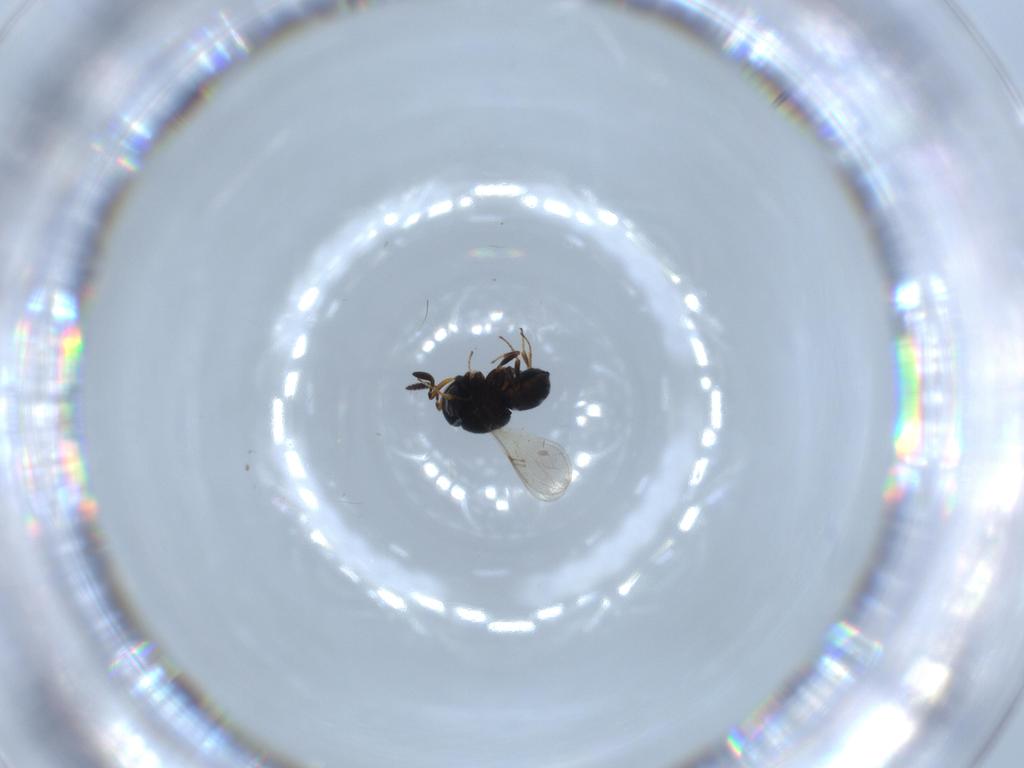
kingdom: Animalia
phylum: Arthropoda
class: Insecta
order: Hymenoptera
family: Scelionidae
